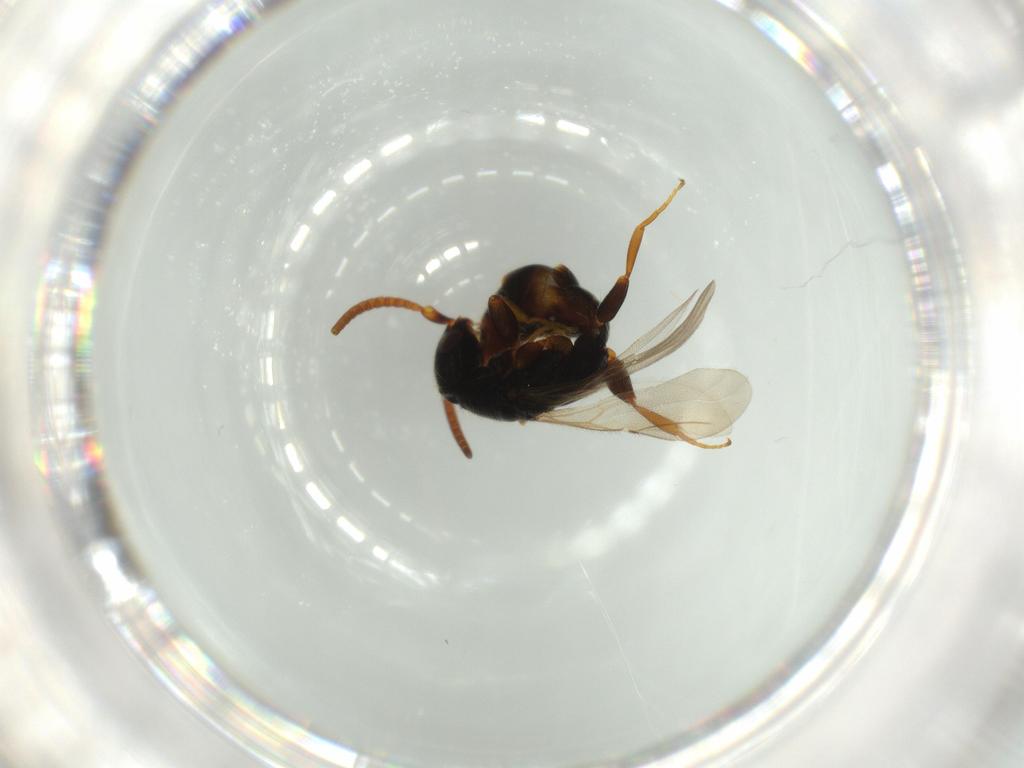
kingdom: Animalia
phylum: Arthropoda
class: Insecta
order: Hymenoptera
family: Bethylidae
